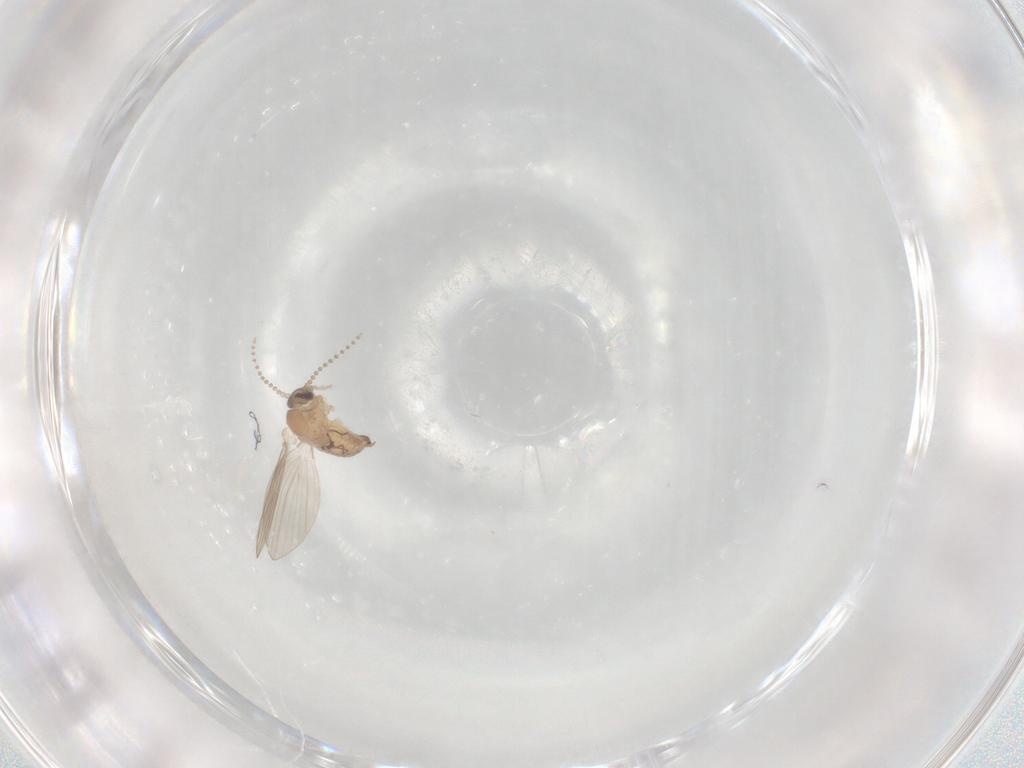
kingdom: Animalia
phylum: Arthropoda
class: Insecta
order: Diptera
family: Psychodidae
